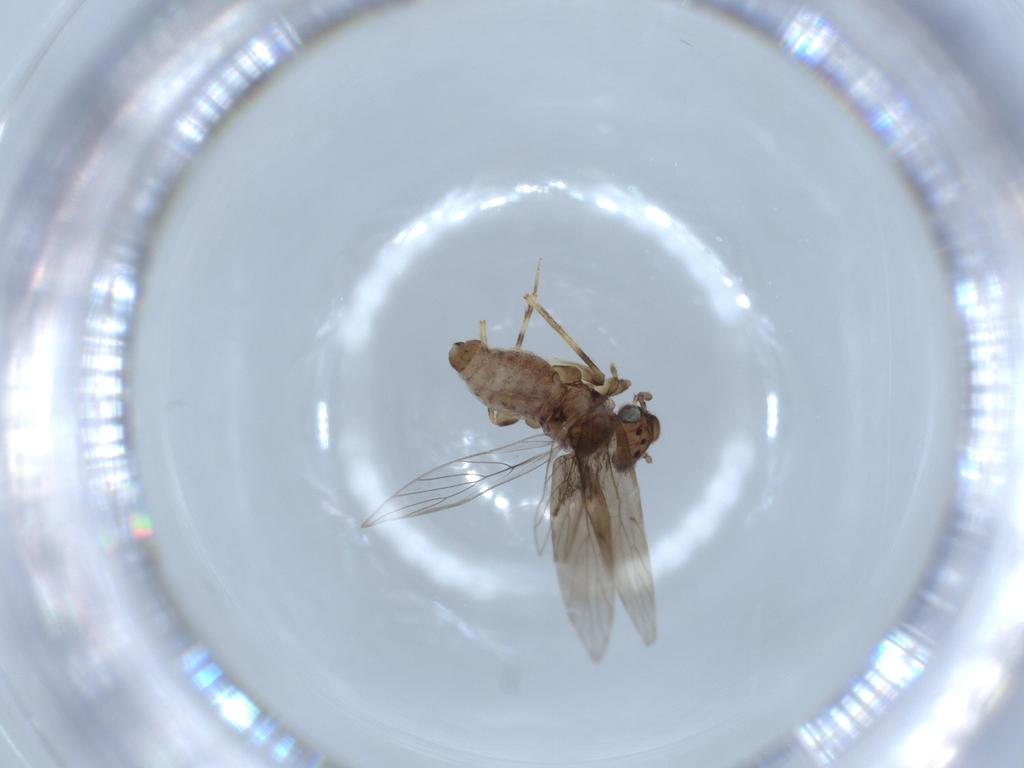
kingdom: Animalia
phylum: Arthropoda
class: Insecta
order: Psocodea
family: Lepidopsocidae
